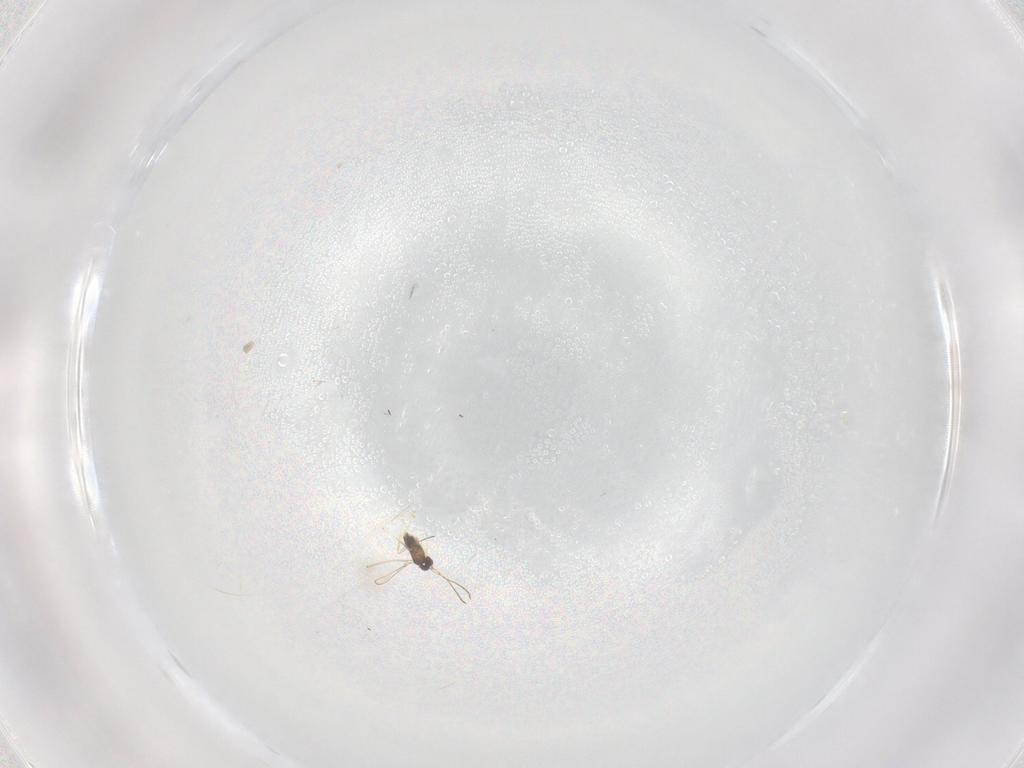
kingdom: Animalia
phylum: Arthropoda
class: Insecta
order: Hymenoptera
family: Mymaridae
